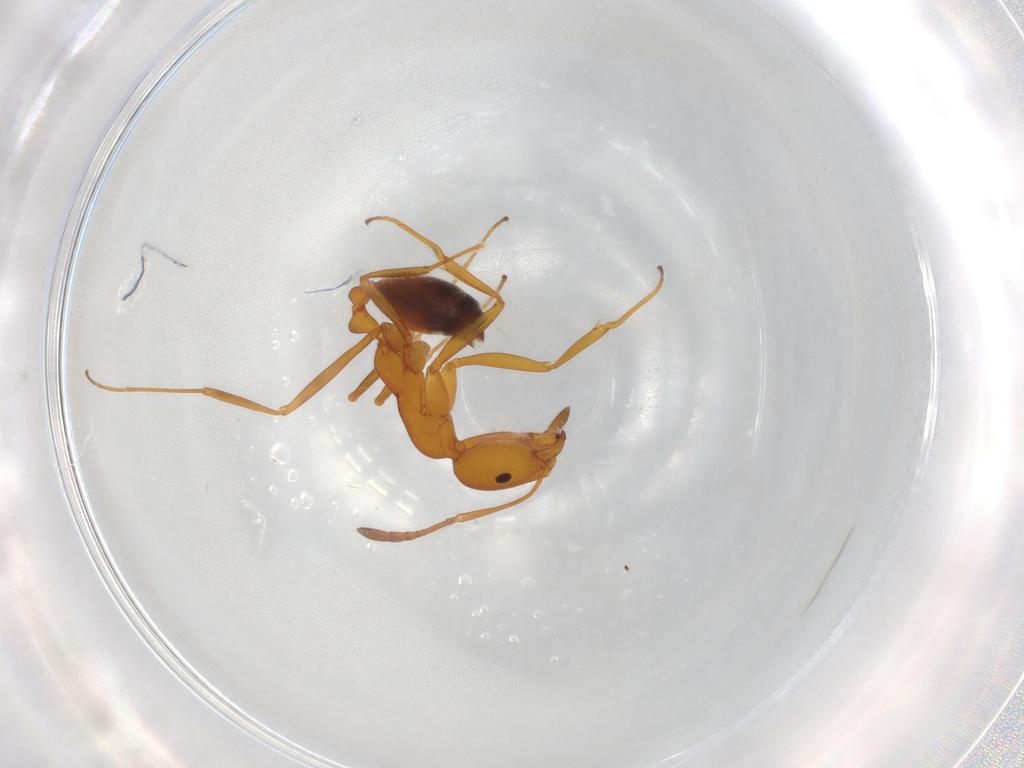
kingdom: Animalia
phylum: Arthropoda
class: Insecta
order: Hymenoptera
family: Formicidae
